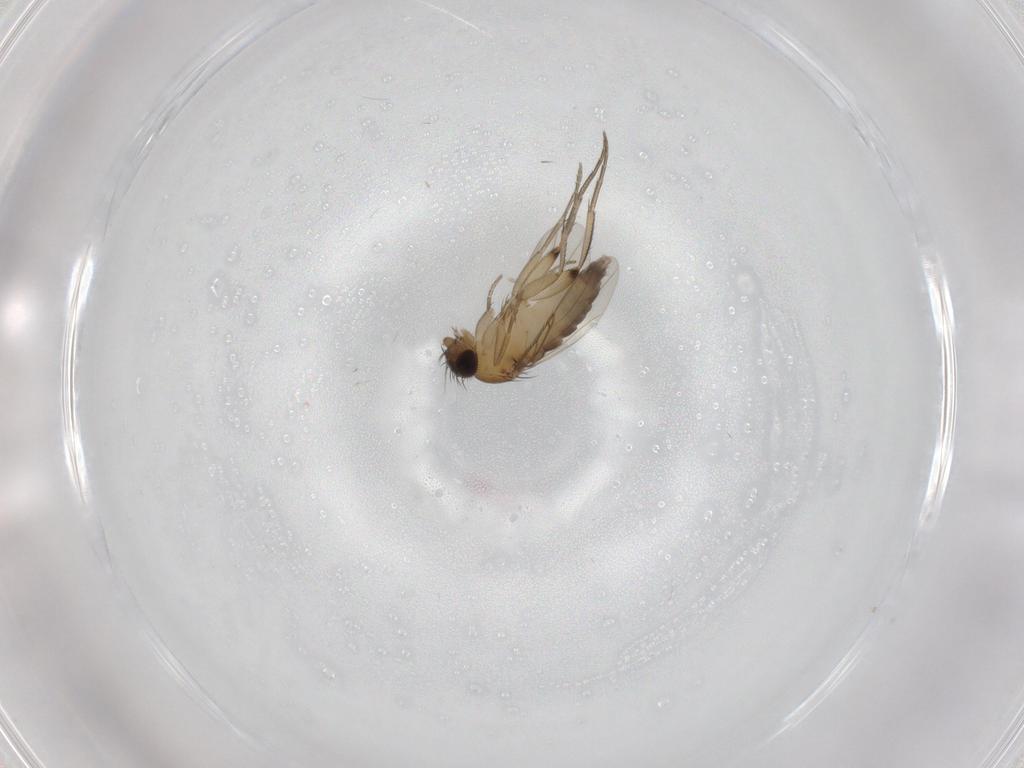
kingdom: Animalia
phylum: Arthropoda
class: Insecta
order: Diptera
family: Phoridae
